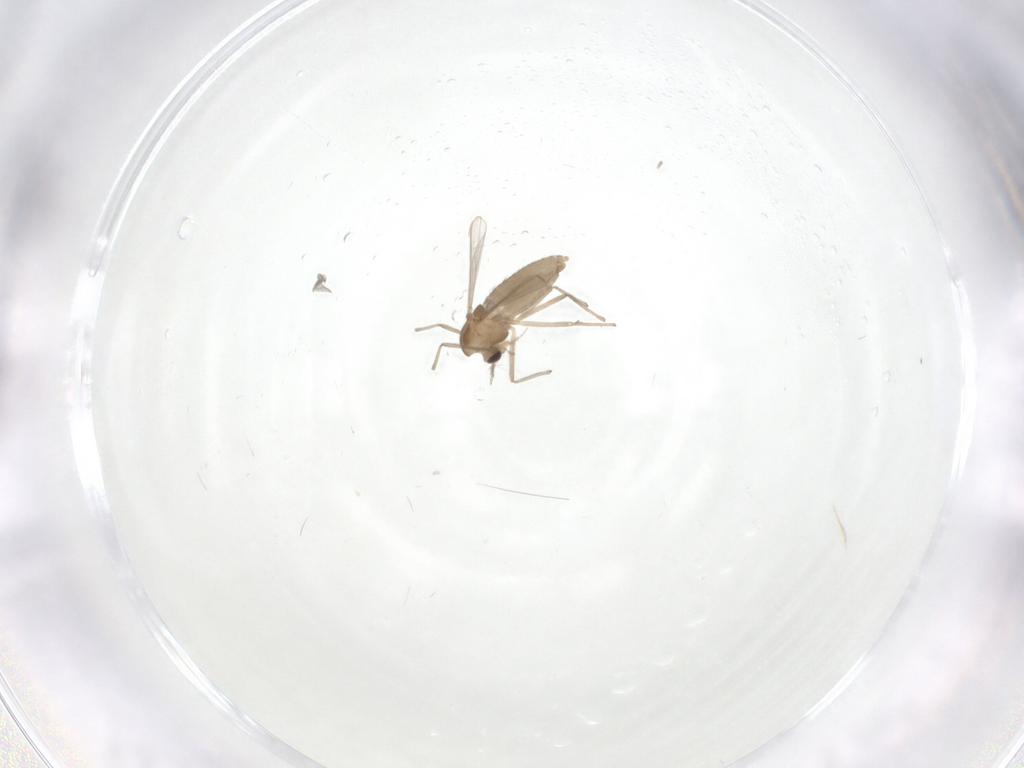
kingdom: Animalia
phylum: Arthropoda
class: Insecta
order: Diptera
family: Chironomidae
